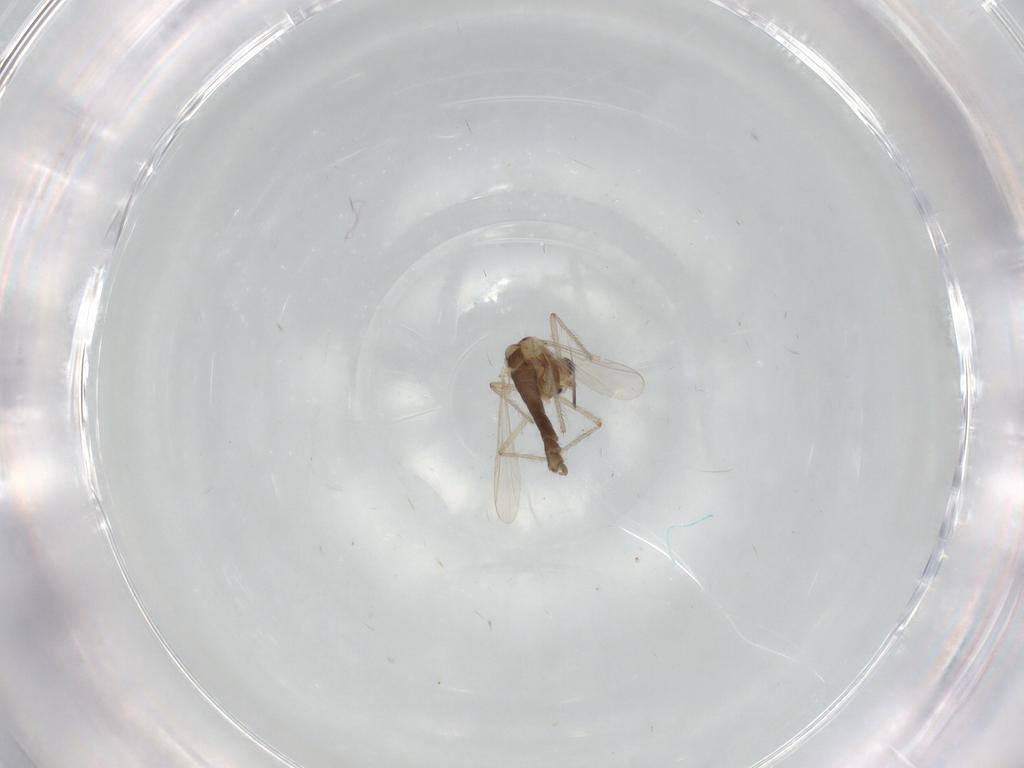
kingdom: Animalia
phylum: Arthropoda
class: Insecta
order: Diptera
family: Chironomidae
